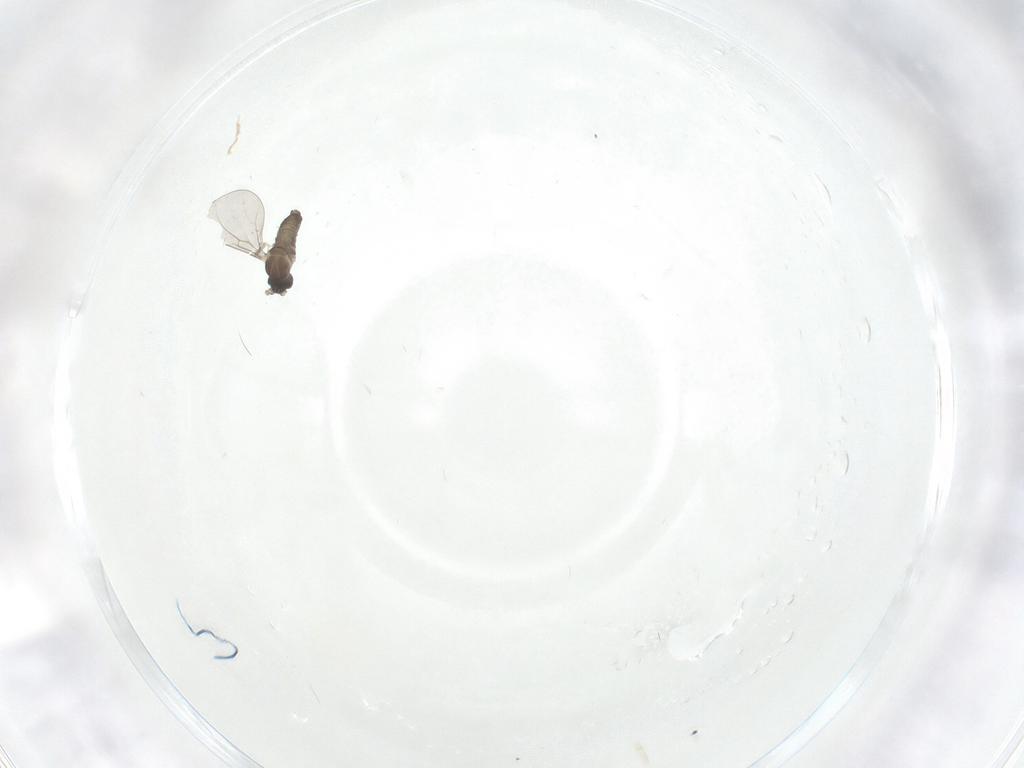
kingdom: Animalia
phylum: Arthropoda
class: Insecta
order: Diptera
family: Cecidomyiidae
